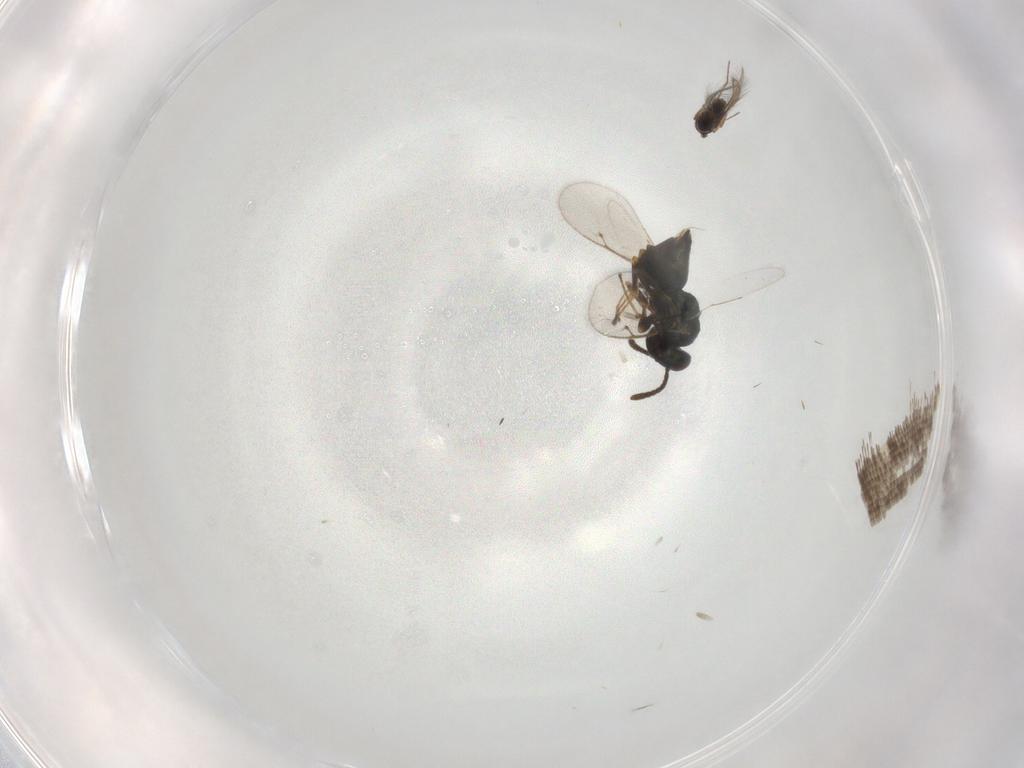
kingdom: Animalia
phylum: Arthropoda
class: Insecta
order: Hymenoptera
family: Pteromalidae
